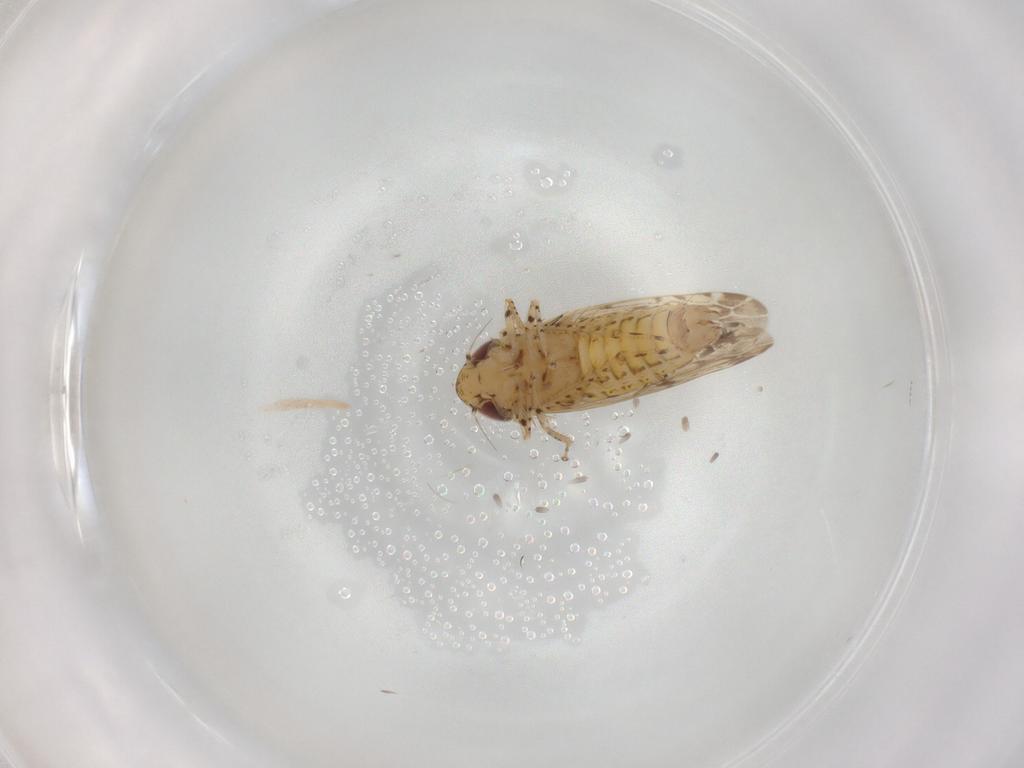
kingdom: Animalia
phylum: Arthropoda
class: Insecta
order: Hemiptera
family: Cicadellidae
